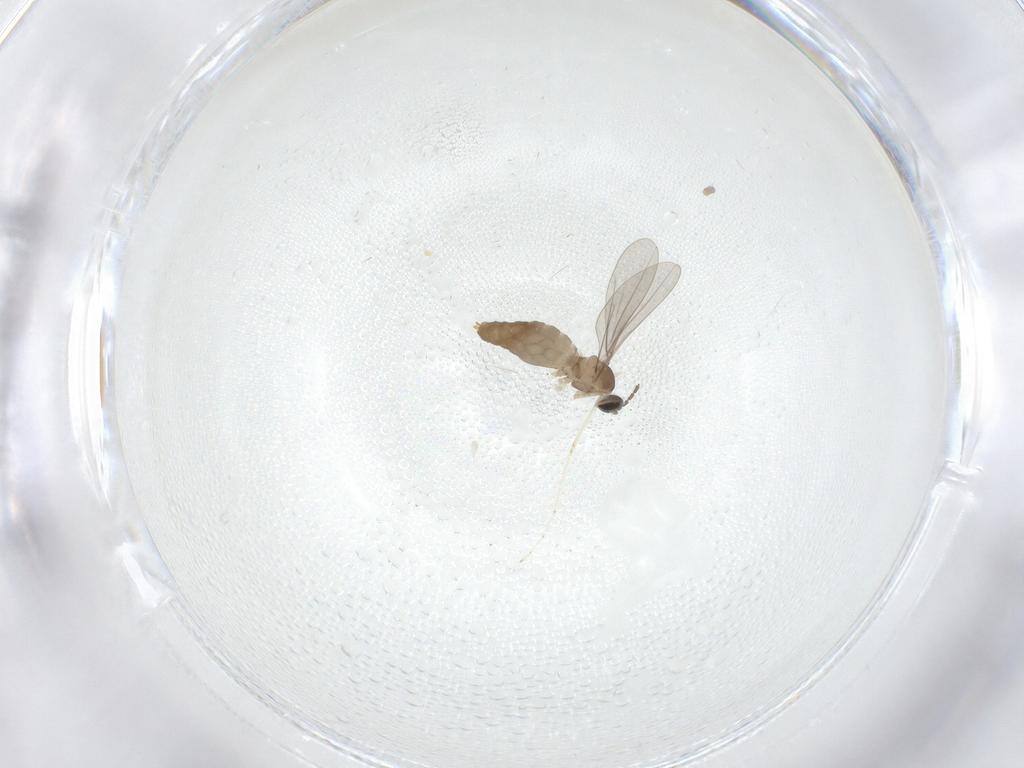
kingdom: Animalia
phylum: Arthropoda
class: Insecta
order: Diptera
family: Psychodidae
